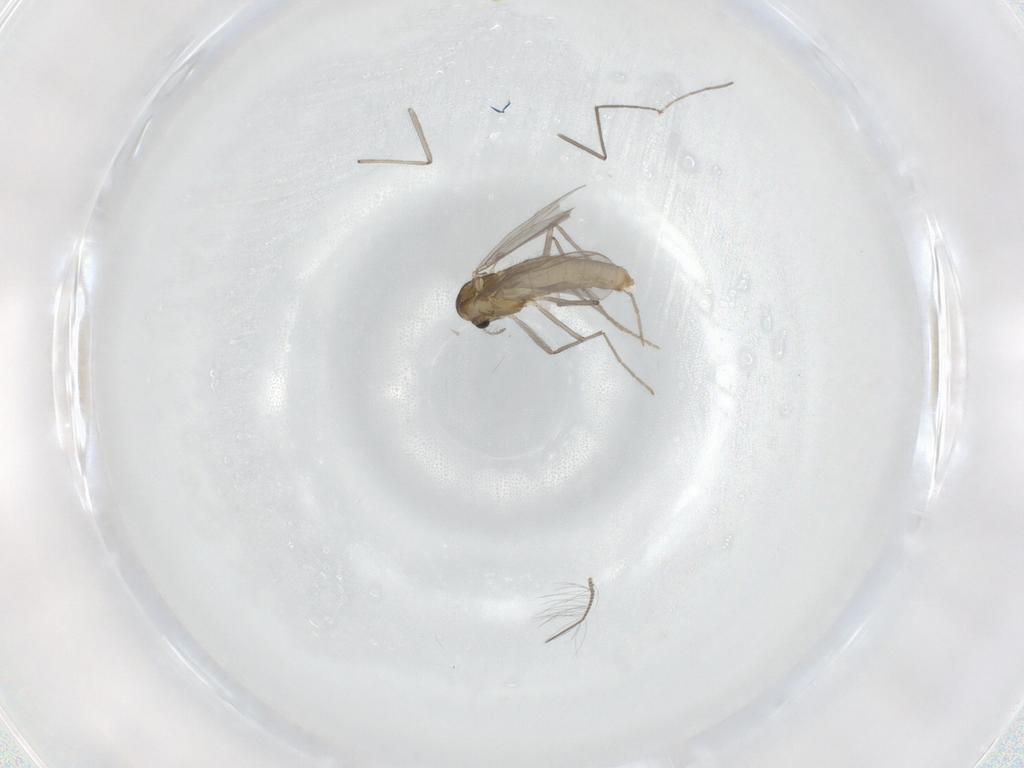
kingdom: Animalia
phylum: Arthropoda
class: Insecta
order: Diptera
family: Chironomidae
